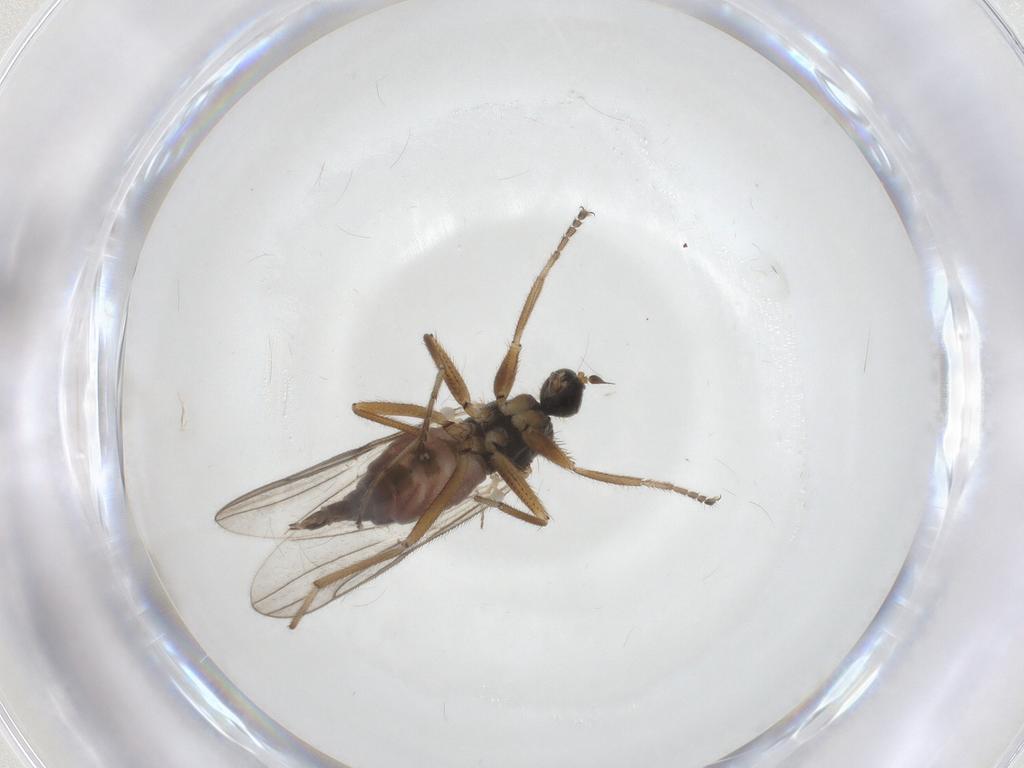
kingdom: Animalia
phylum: Arthropoda
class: Insecta
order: Diptera
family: Hybotidae
